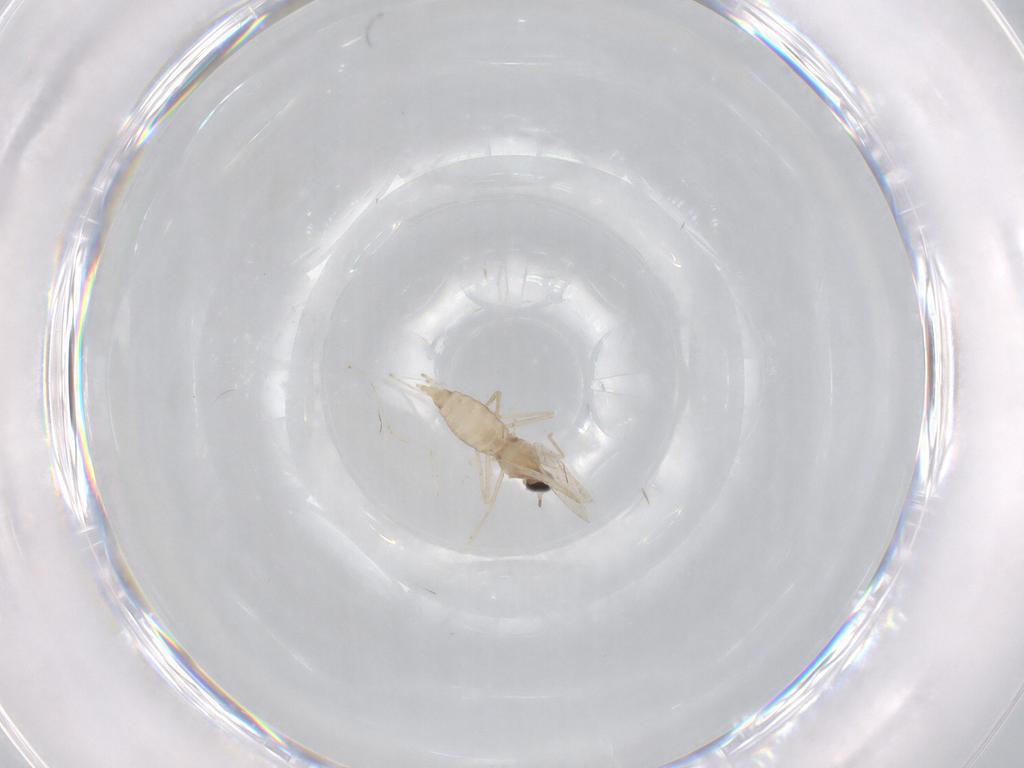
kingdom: Animalia
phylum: Arthropoda
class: Insecta
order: Diptera
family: Cecidomyiidae
